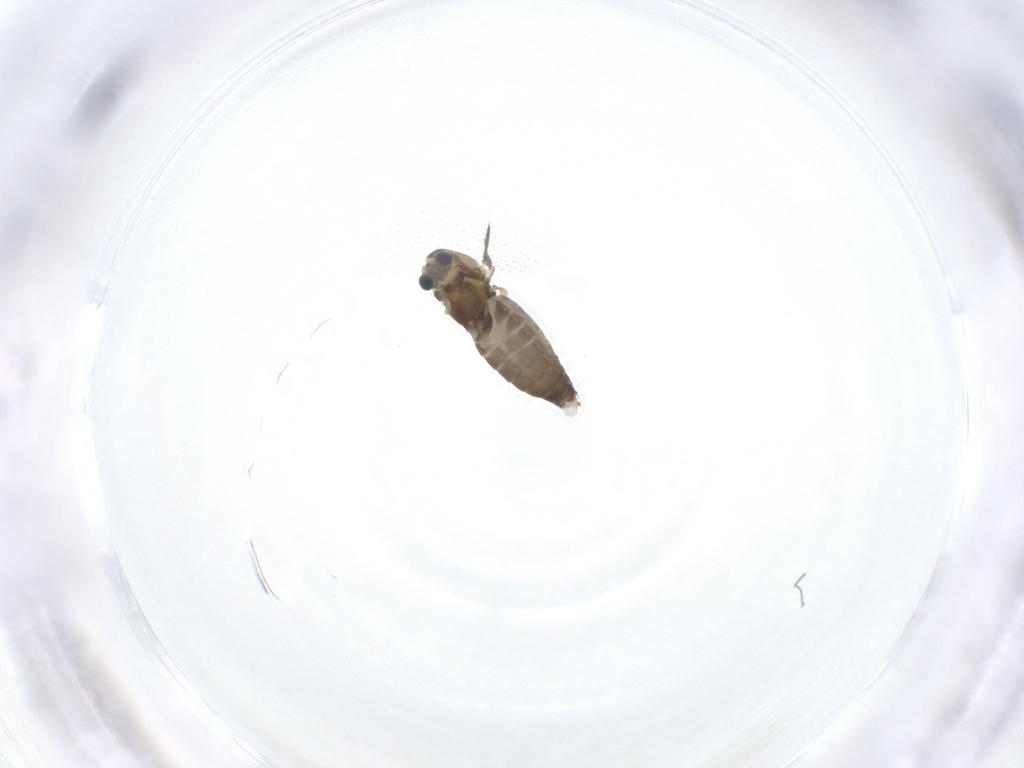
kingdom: Animalia
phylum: Arthropoda
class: Insecta
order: Diptera
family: Chironomidae
